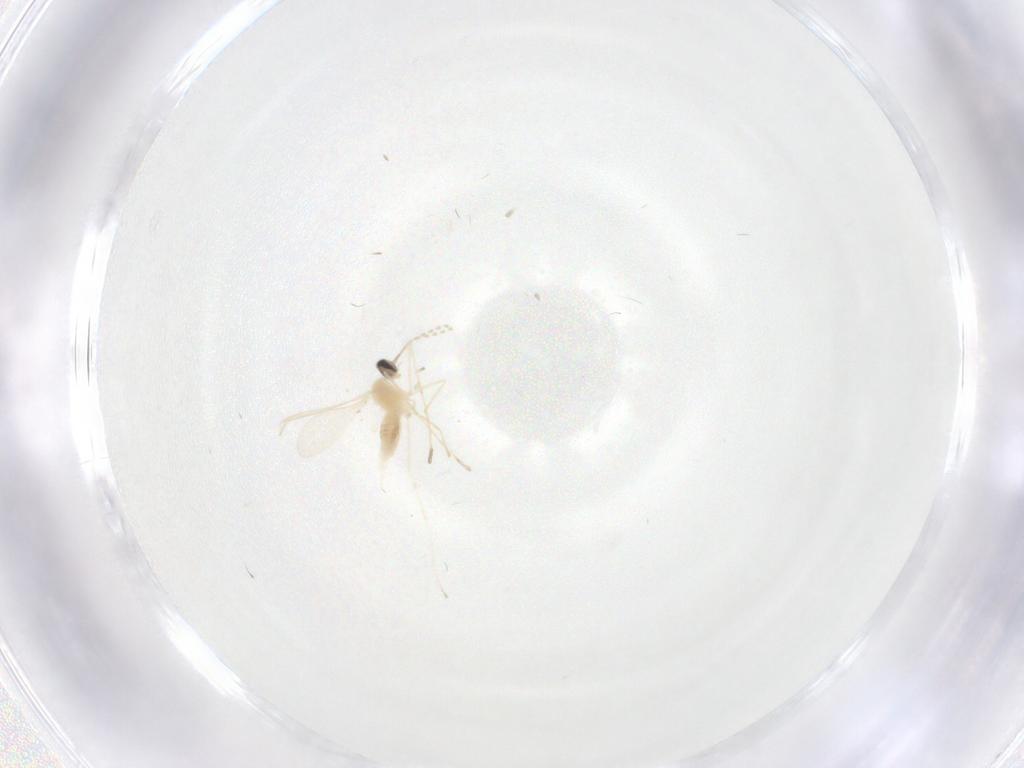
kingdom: Animalia
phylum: Arthropoda
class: Insecta
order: Diptera
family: Cecidomyiidae
